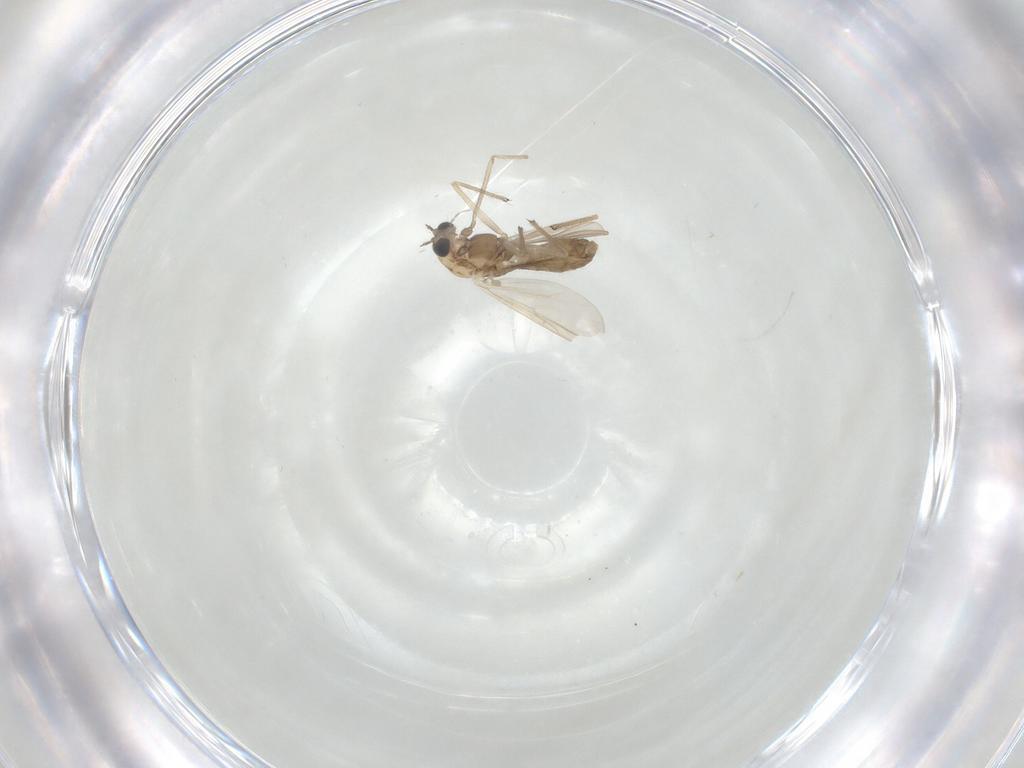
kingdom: Animalia
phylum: Arthropoda
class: Insecta
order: Diptera
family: Chironomidae
